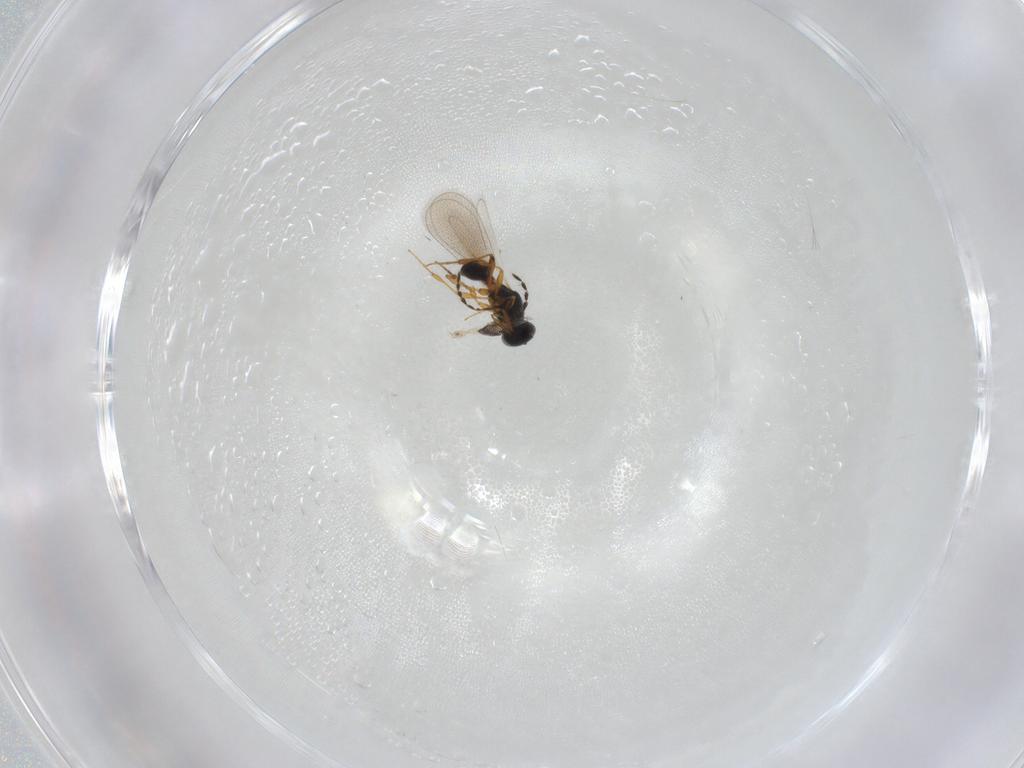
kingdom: Animalia
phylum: Arthropoda
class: Insecta
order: Hymenoptera
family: Platygastridae
